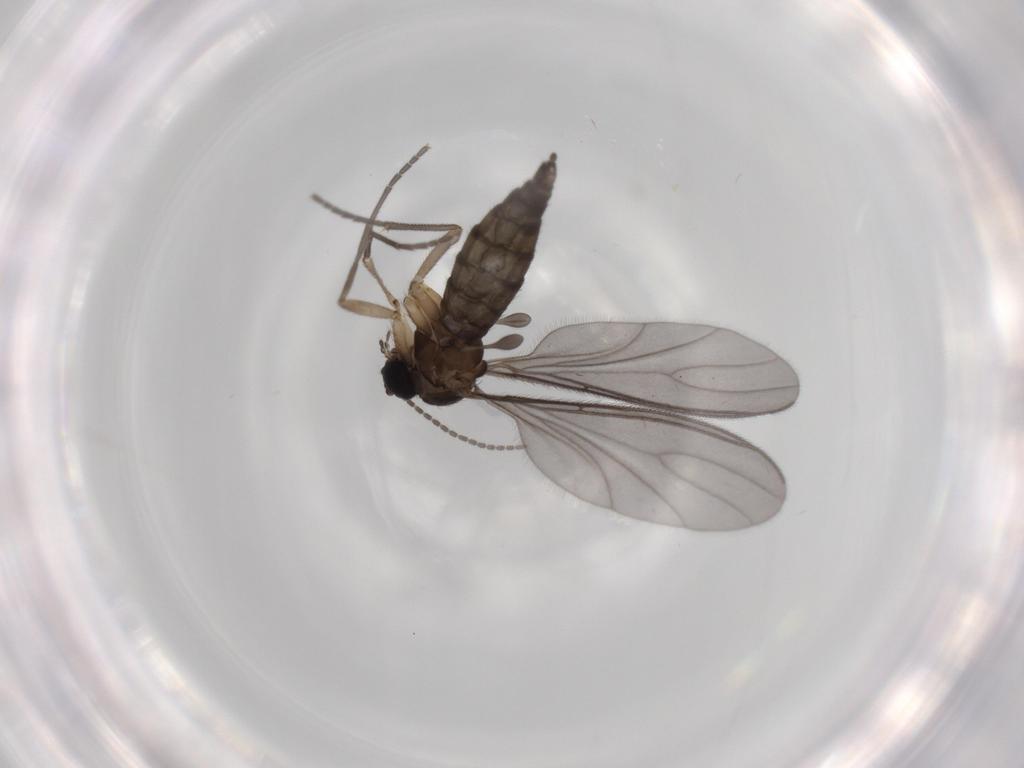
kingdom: Animalia
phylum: Arthropoda
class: Insecta
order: Diptera
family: Sciaridae
